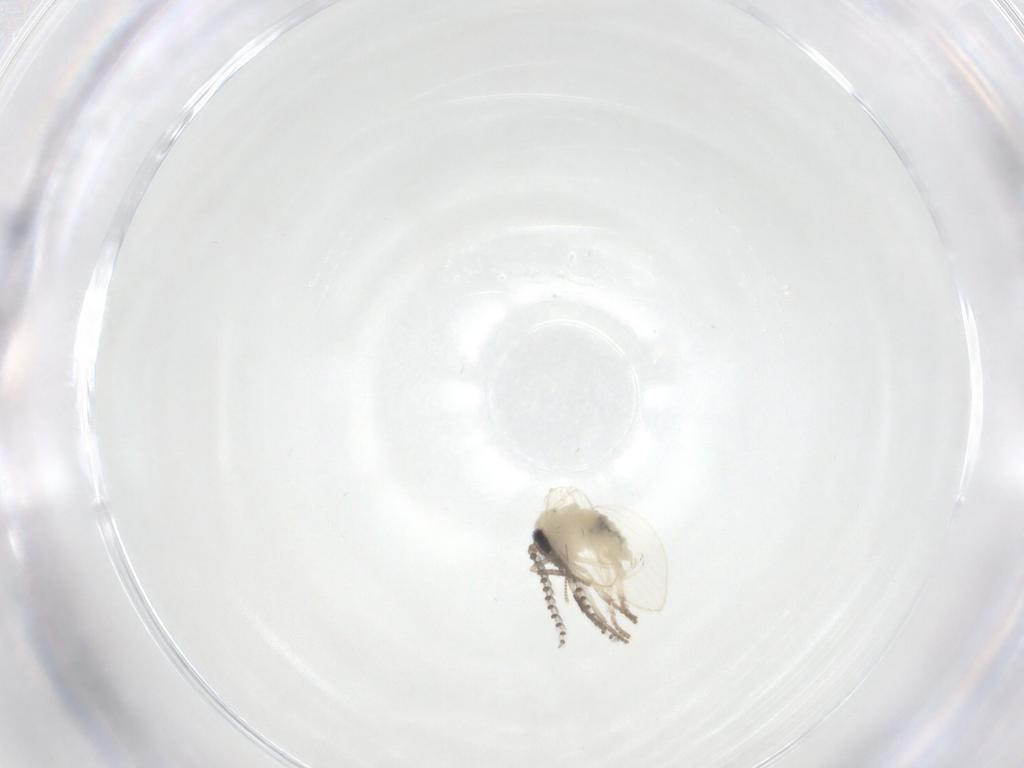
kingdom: Animalia
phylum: Arthropoda
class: Insecta
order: Diptera
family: Psychodidae
